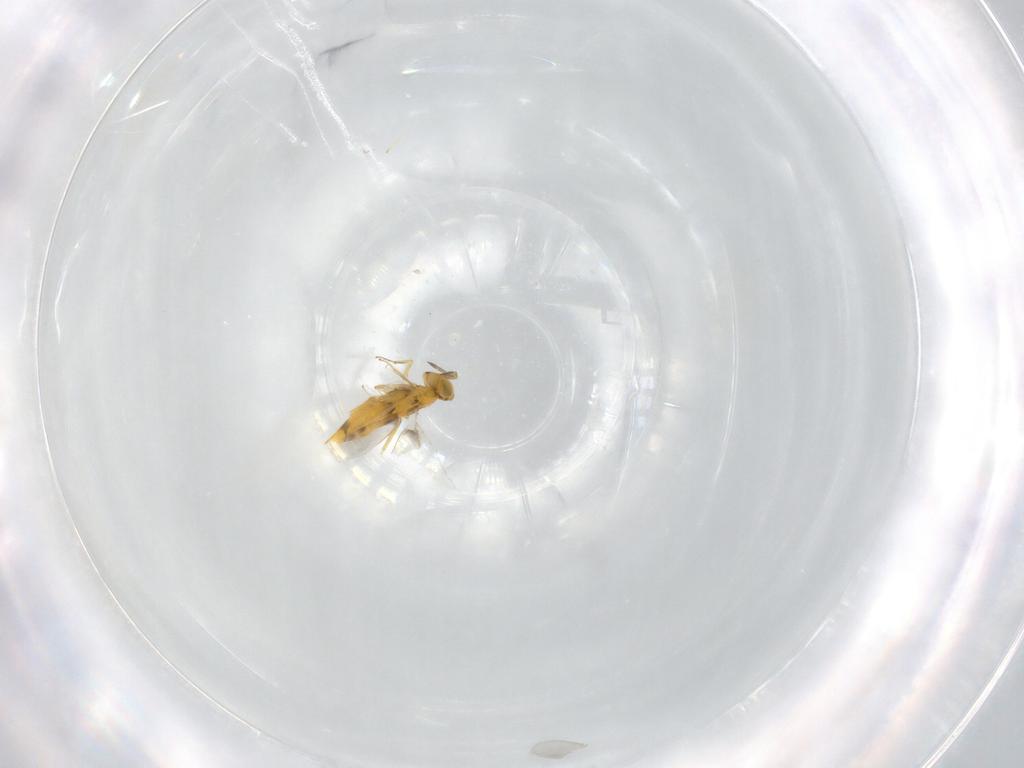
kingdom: Animalia
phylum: Arthropoda
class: Insecta
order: Hymenoptera
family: Aphelinidae
